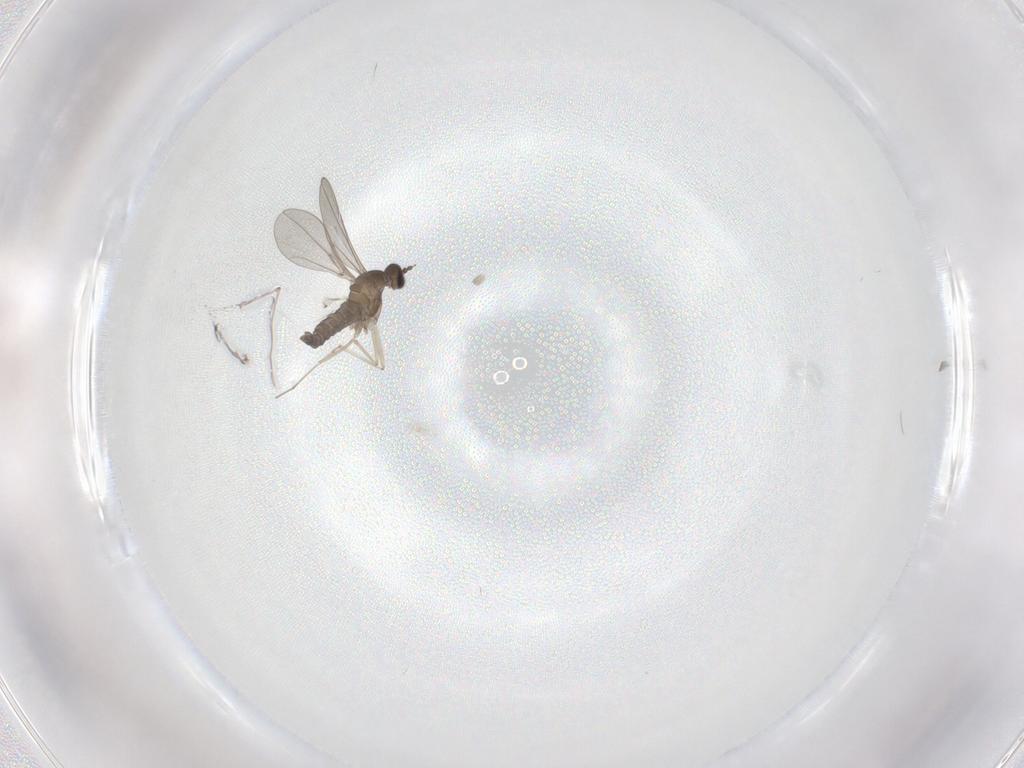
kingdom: Animalia
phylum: Arthropoda
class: Insecta
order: Diptera
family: Cecidomyiidae
